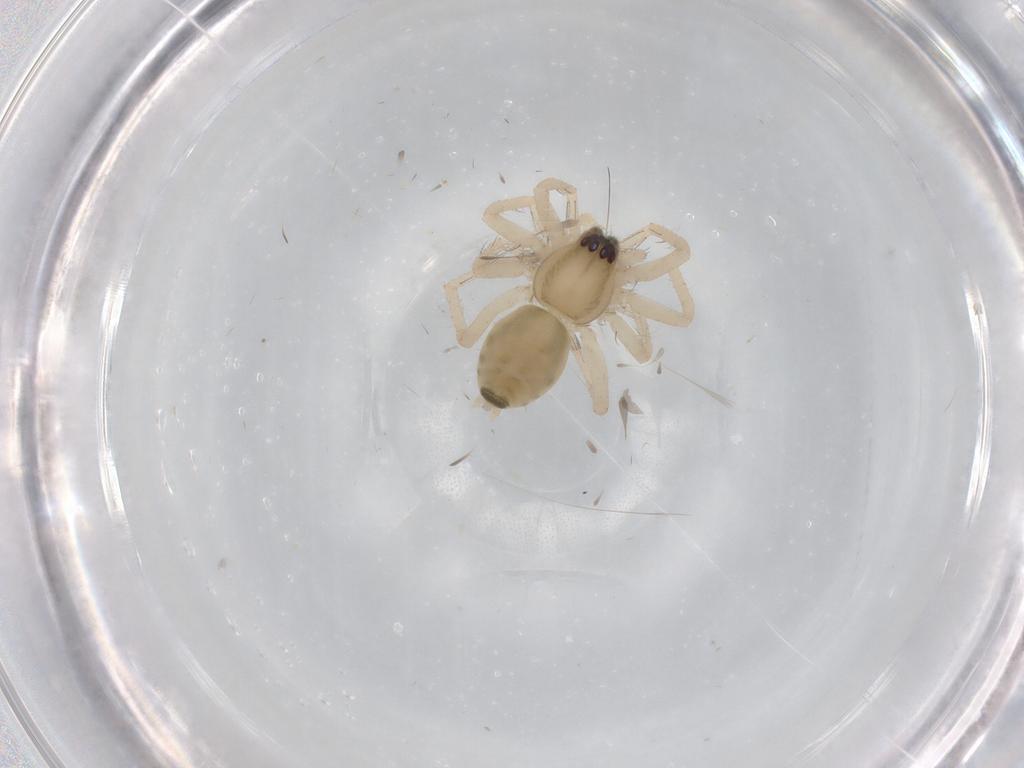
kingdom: Animalia
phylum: Arthropoda
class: Arachnida
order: Araneae
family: Anyphaenidae
